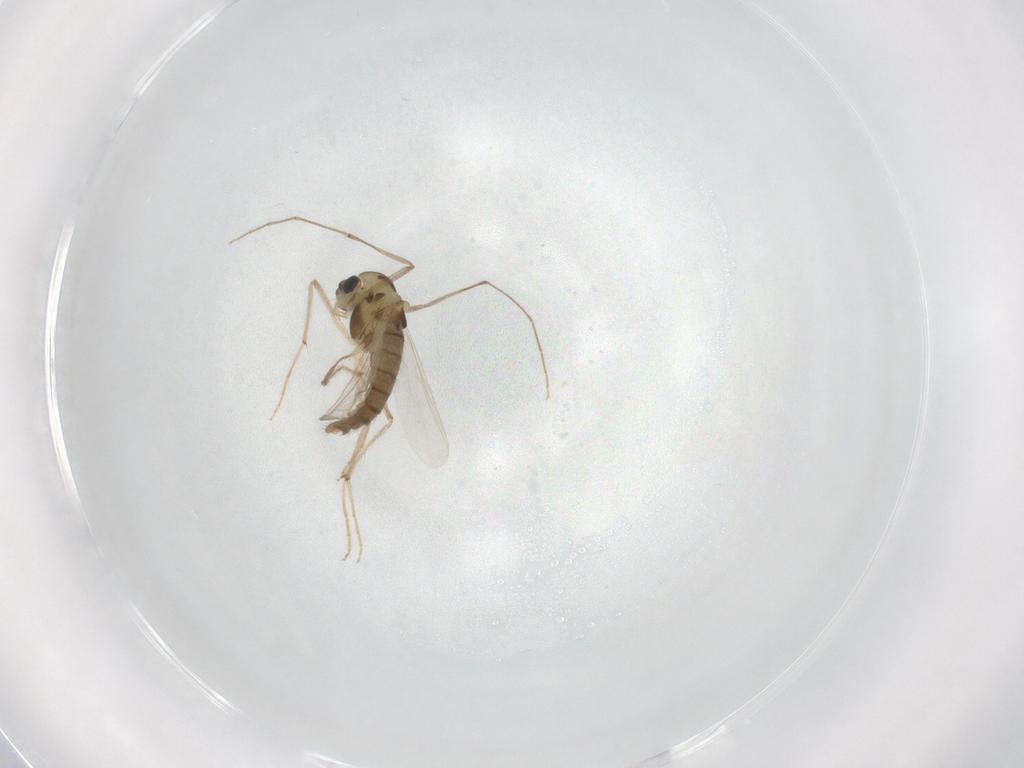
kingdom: Animalia
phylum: Arthropoda
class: Insecta
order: Diptera
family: Chironomidae
